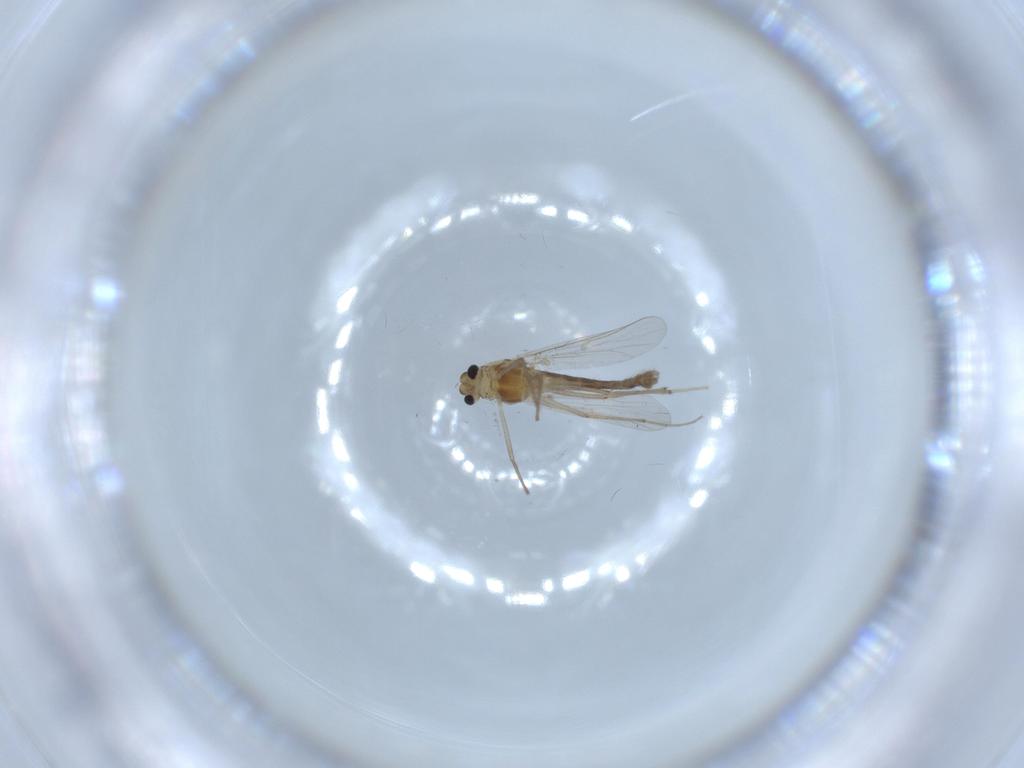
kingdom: Animalia
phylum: Arthropoda
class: Insecta
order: Diptera
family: Chironomidae
